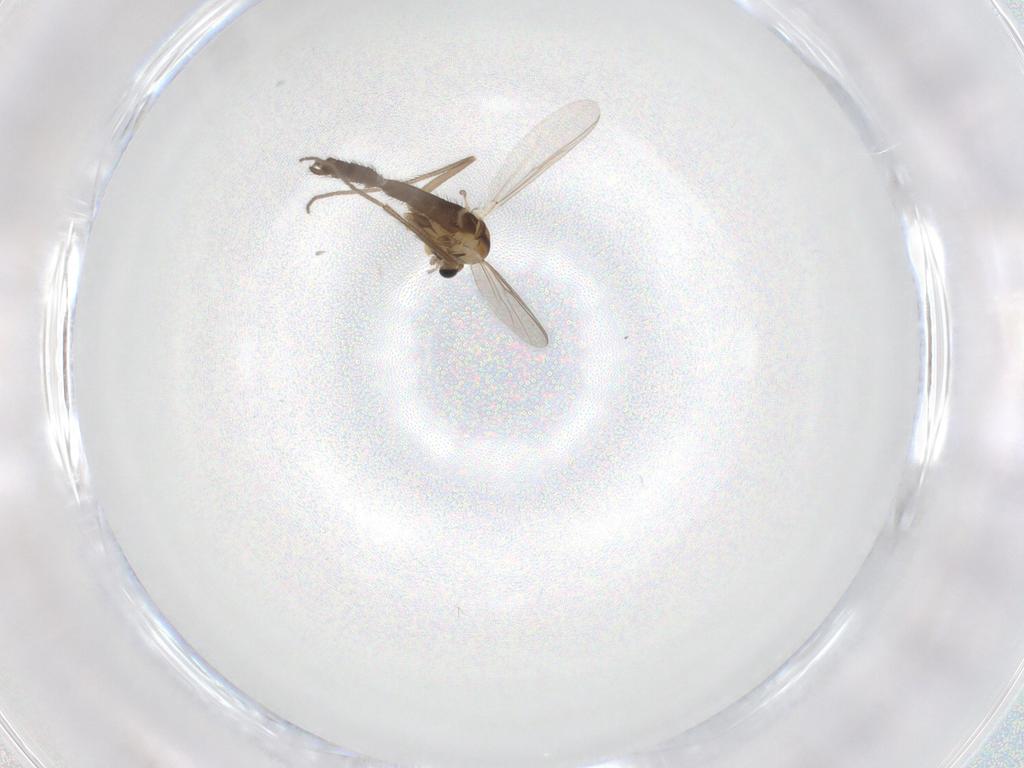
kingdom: Animalia
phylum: Arthropoda
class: Insecta
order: Diptera
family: Chironomidae
